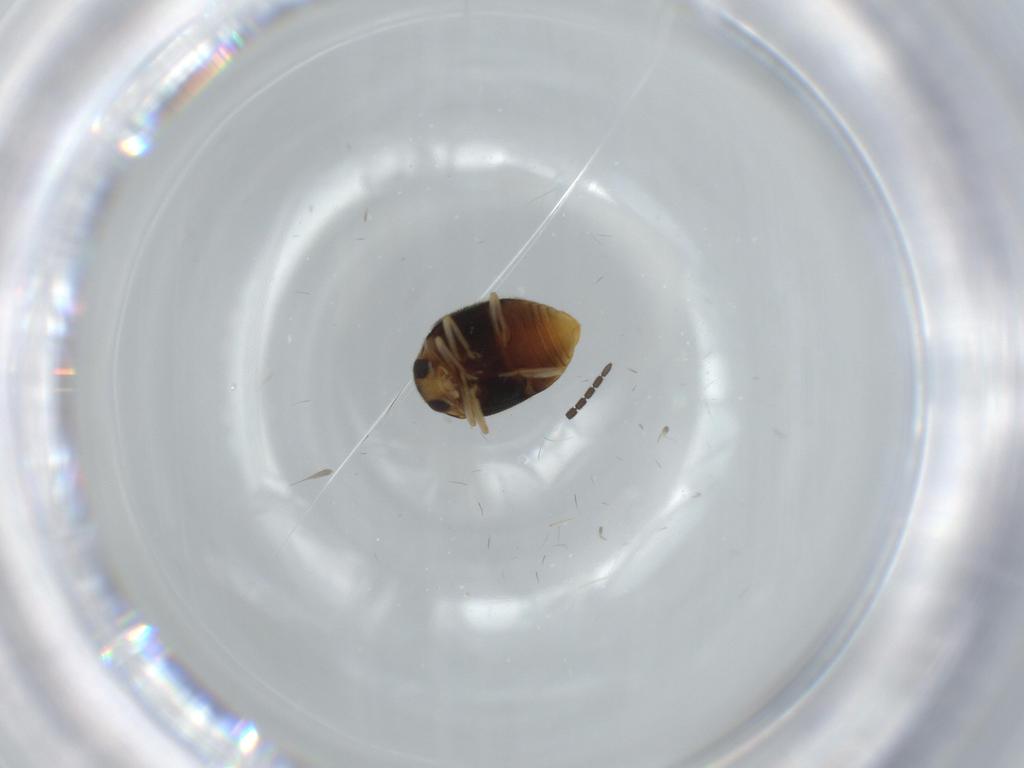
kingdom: Animalia
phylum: Arthropoda
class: Insecta
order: Coleoptera
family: Coccinellidae
